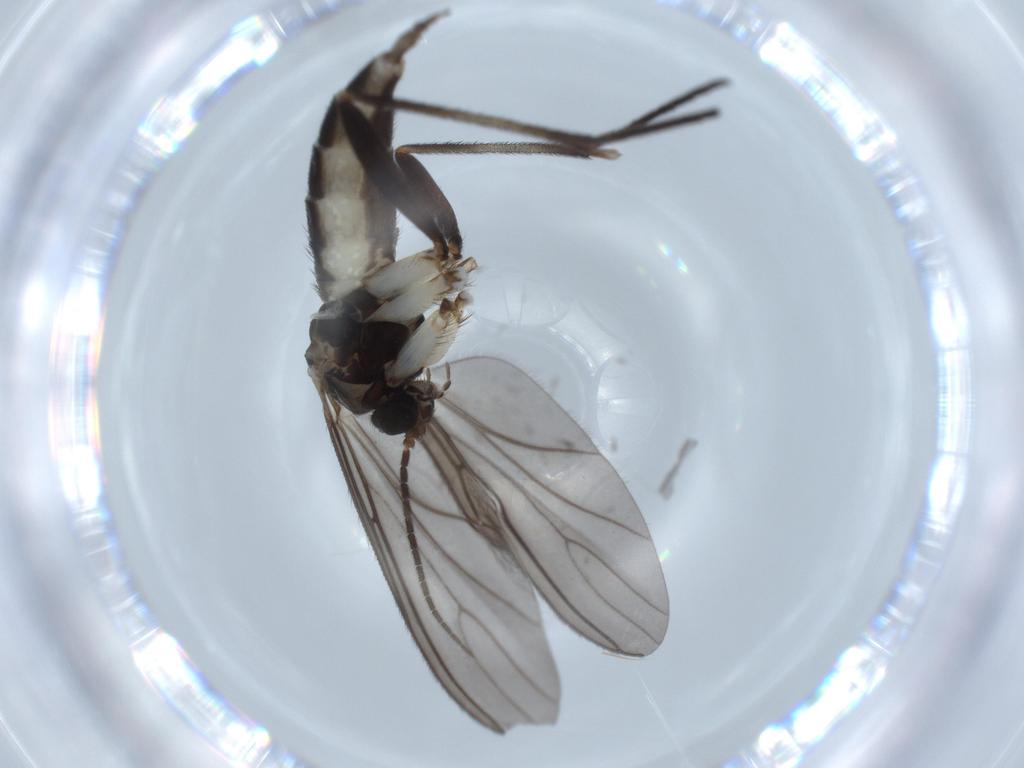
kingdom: Animalia
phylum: Arthropoda
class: Insecta
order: Diptera
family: Sciaridae
